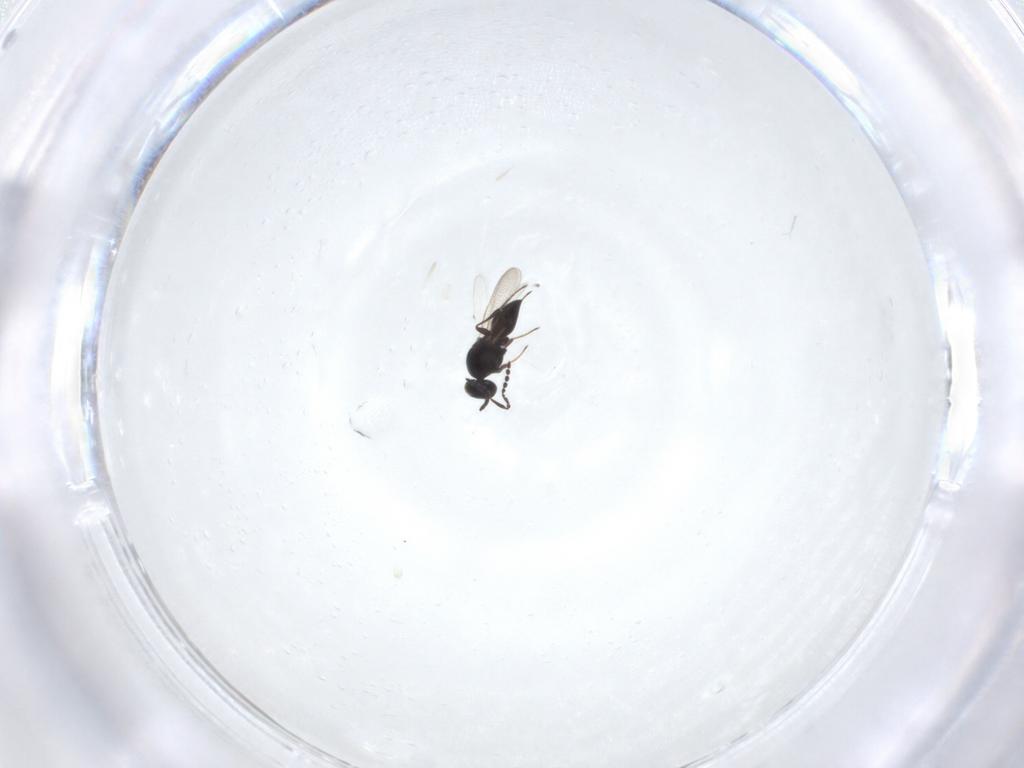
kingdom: Animalia
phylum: Arthropoda
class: Insecta
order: Hymenoptera
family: Platygastridae
